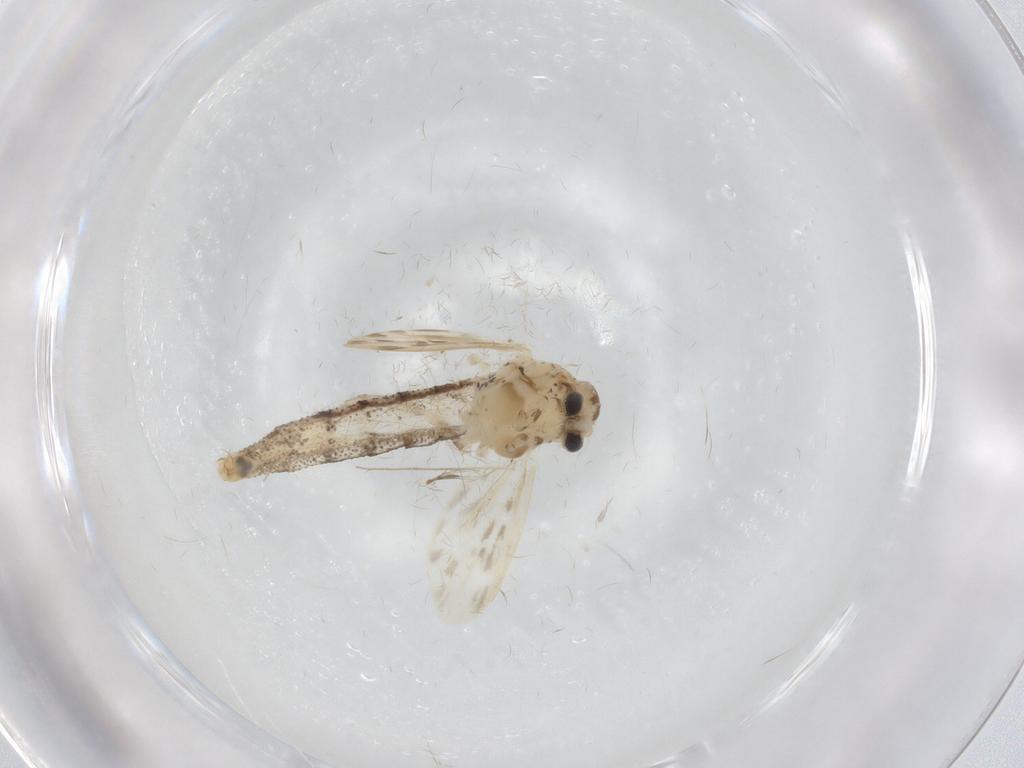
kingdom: Animalia
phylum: Arthropoda
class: Insecta
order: Diptera
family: Chaoboridae
